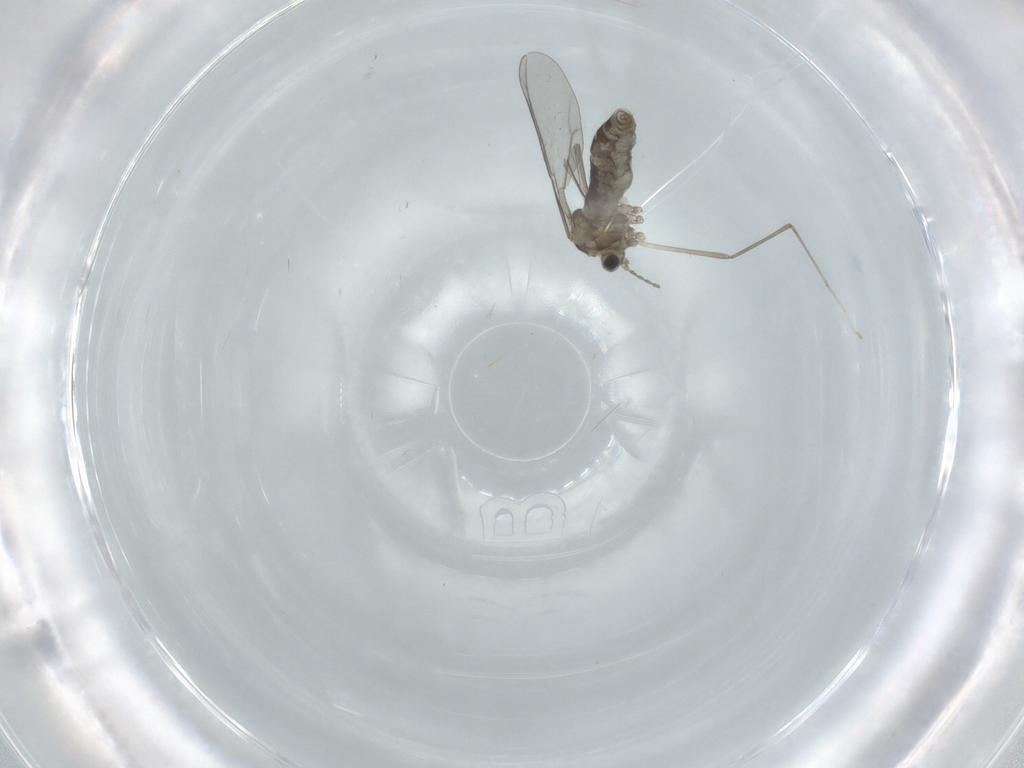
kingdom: Animalia
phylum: Arthropoda
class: Insecta
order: Diptera
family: Cecidomyiidae
